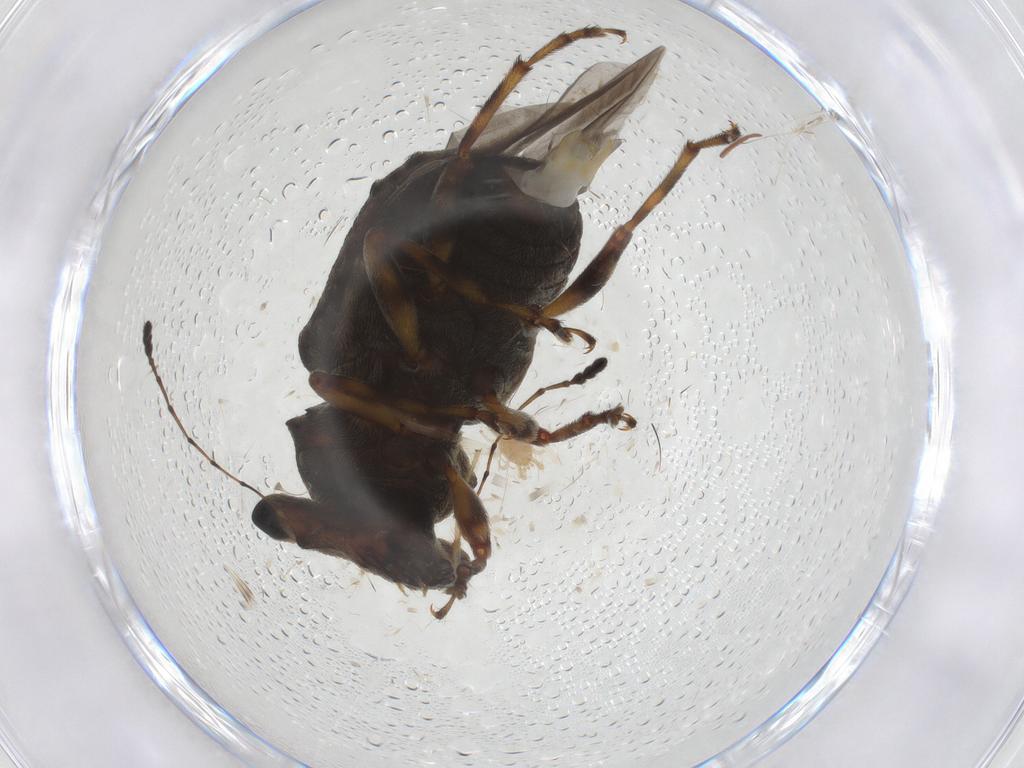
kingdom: Animalia
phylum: Arthropoda
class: Insecta
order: Coleoptera
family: Anthribidae
